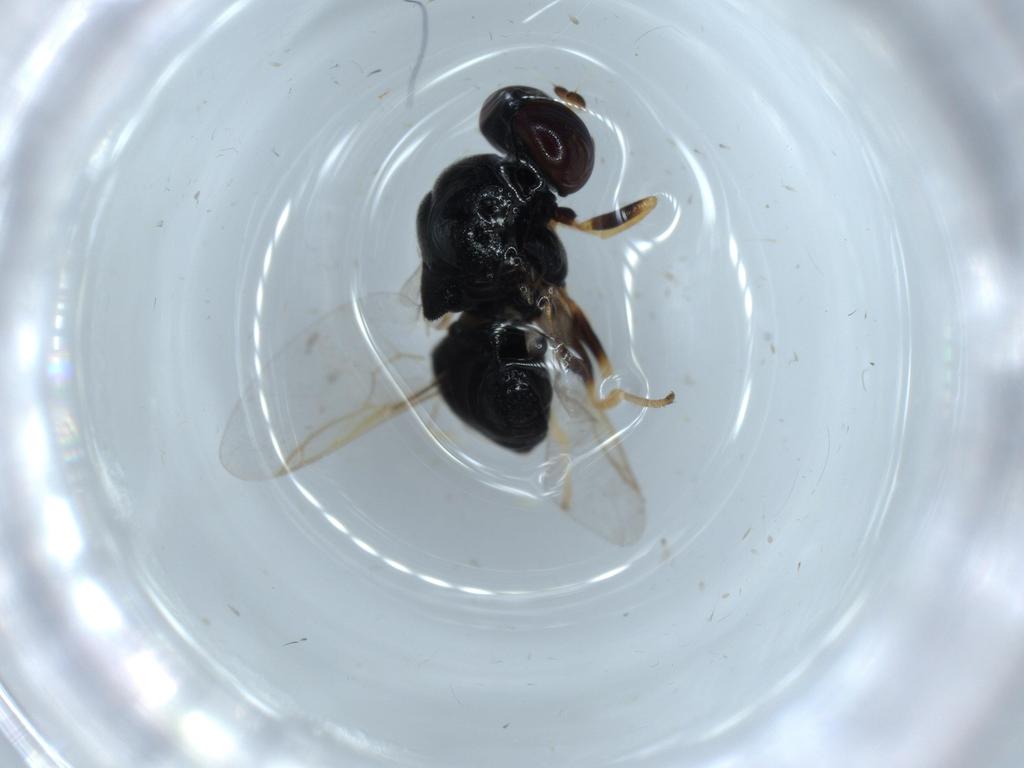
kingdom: Animalia
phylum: Arthropoda
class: Insecta
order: Diptera
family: Stratiomyidae
